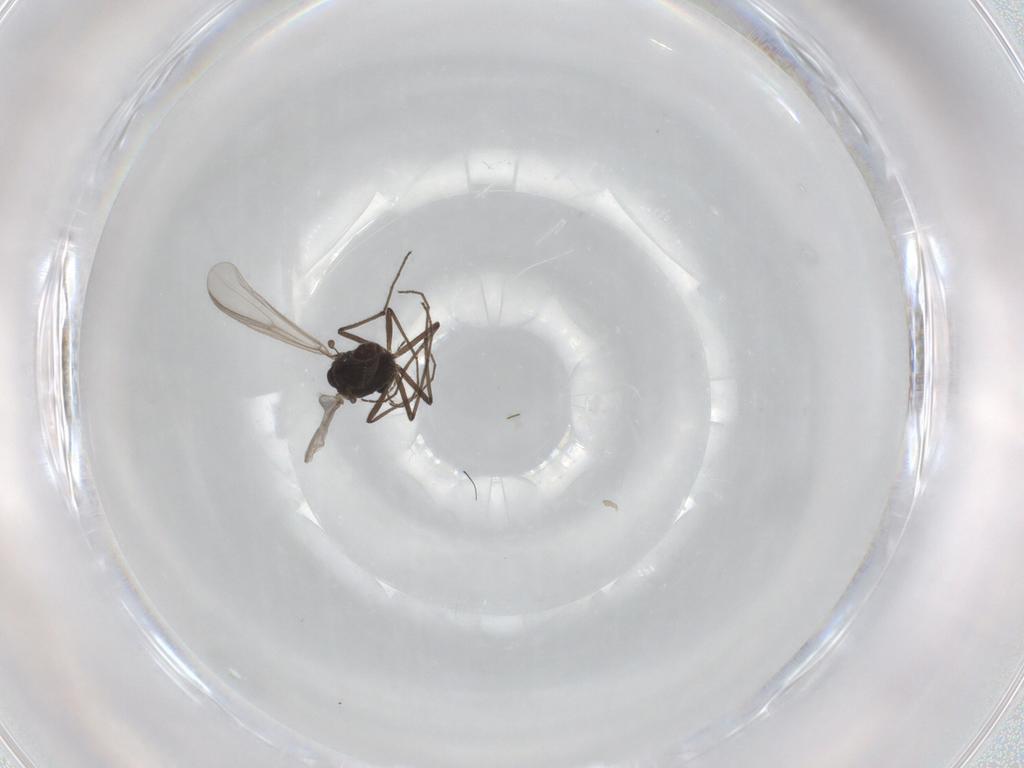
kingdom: Animalia
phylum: Arthropoda
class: Insecta
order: Diptera
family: Chironomidae
